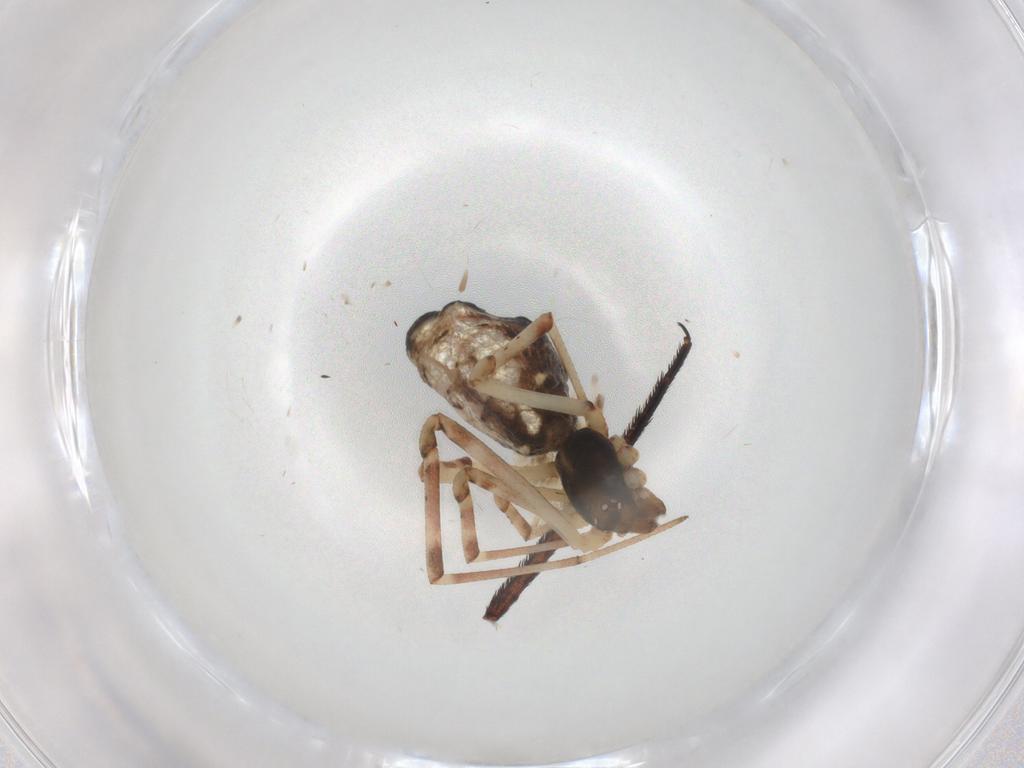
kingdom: Animalia
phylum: Arthropoda
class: Arachnida
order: Araneae
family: Theridiidae
